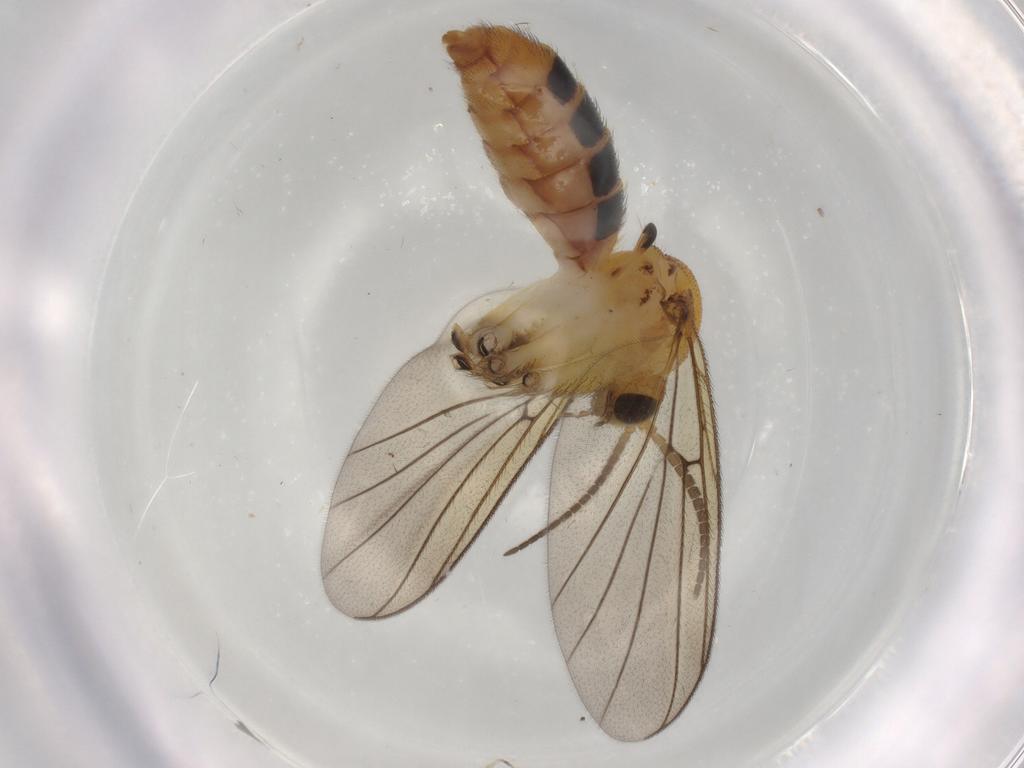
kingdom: Animalia
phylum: Arthropoda
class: Insecta
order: Diptera
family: Mycetophilidae
